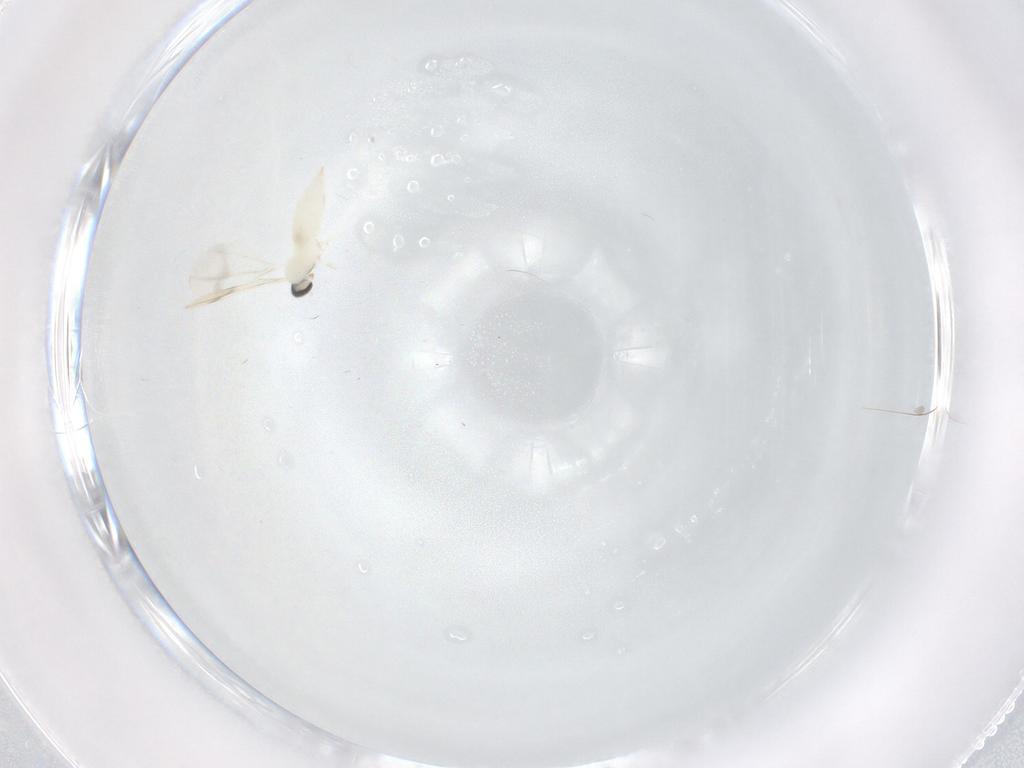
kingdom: Animalia
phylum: Arthropoda
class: Insecta
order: Diptera
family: Cecidomyiidae
